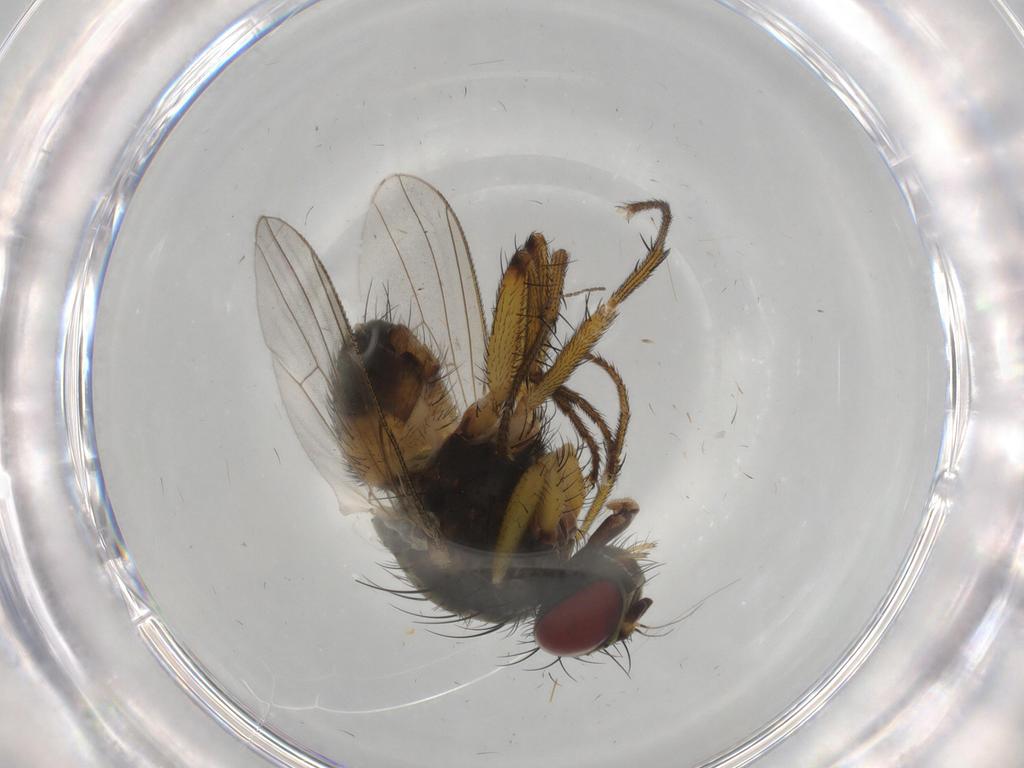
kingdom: Animalia
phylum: Arthropoda
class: Insecta
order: Diptera
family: Muscidae
